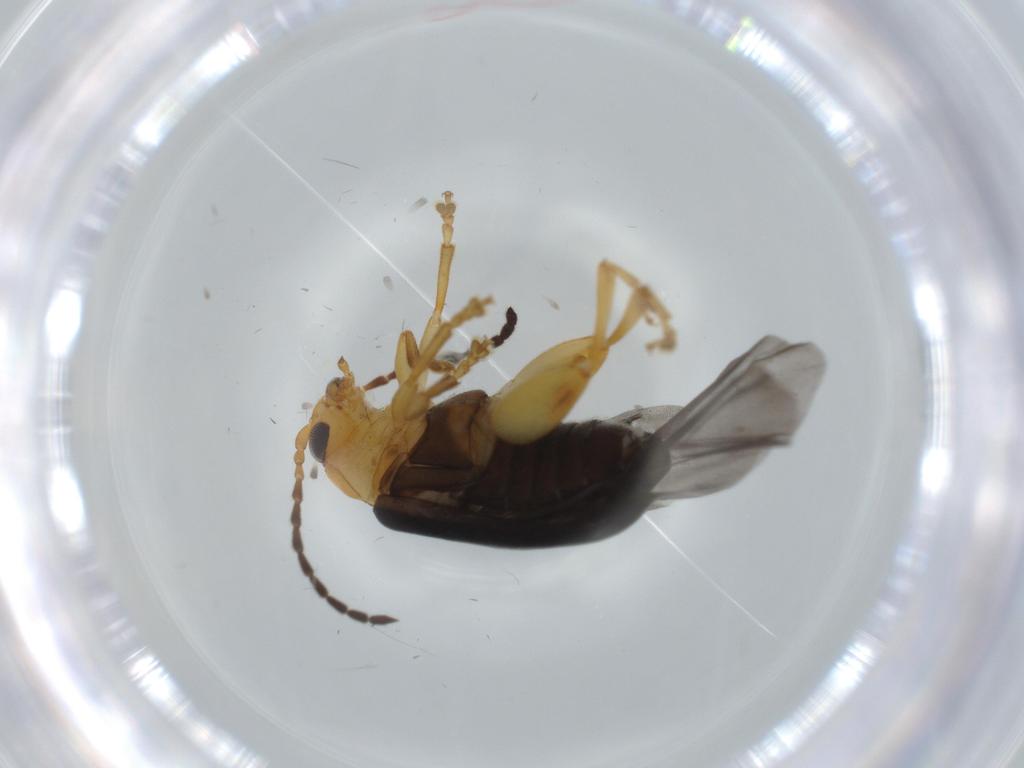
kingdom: Animalia
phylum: Arthropoda
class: Insecta
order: Coleoptera
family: Chrysomelidae
